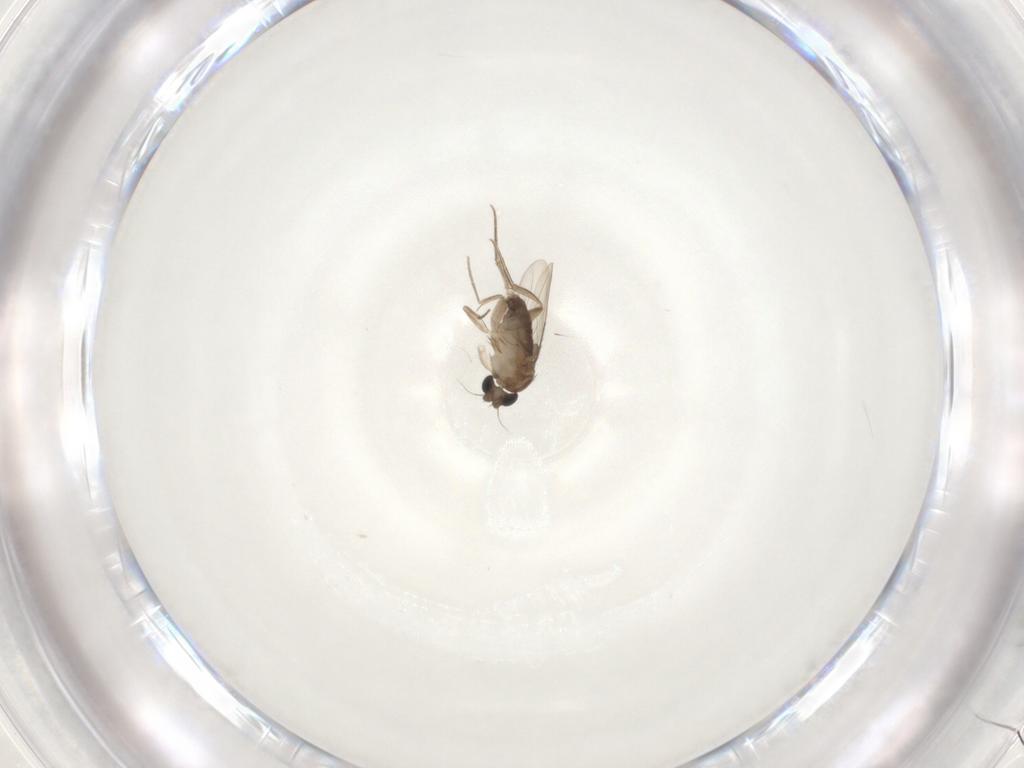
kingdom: Animalia
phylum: Arthropoda
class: Insecta
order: Diptera
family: Phoridae
